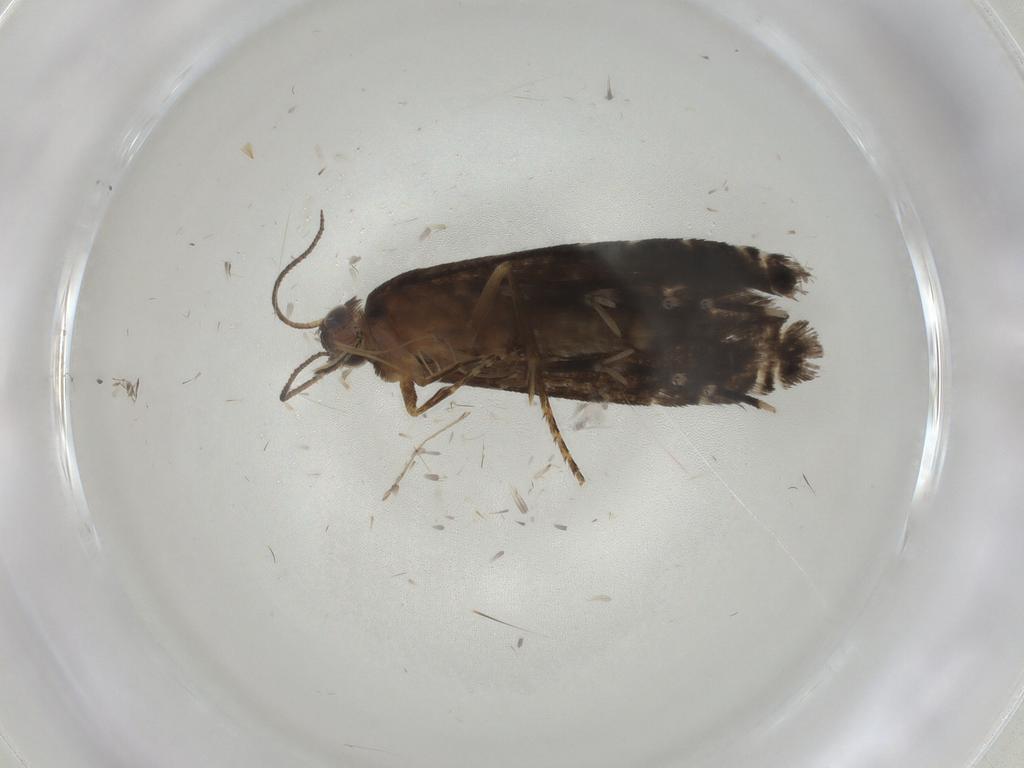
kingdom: Animalia
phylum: Arthropoda
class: Insecta
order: Lepidoptera
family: Glyphipterigidae
